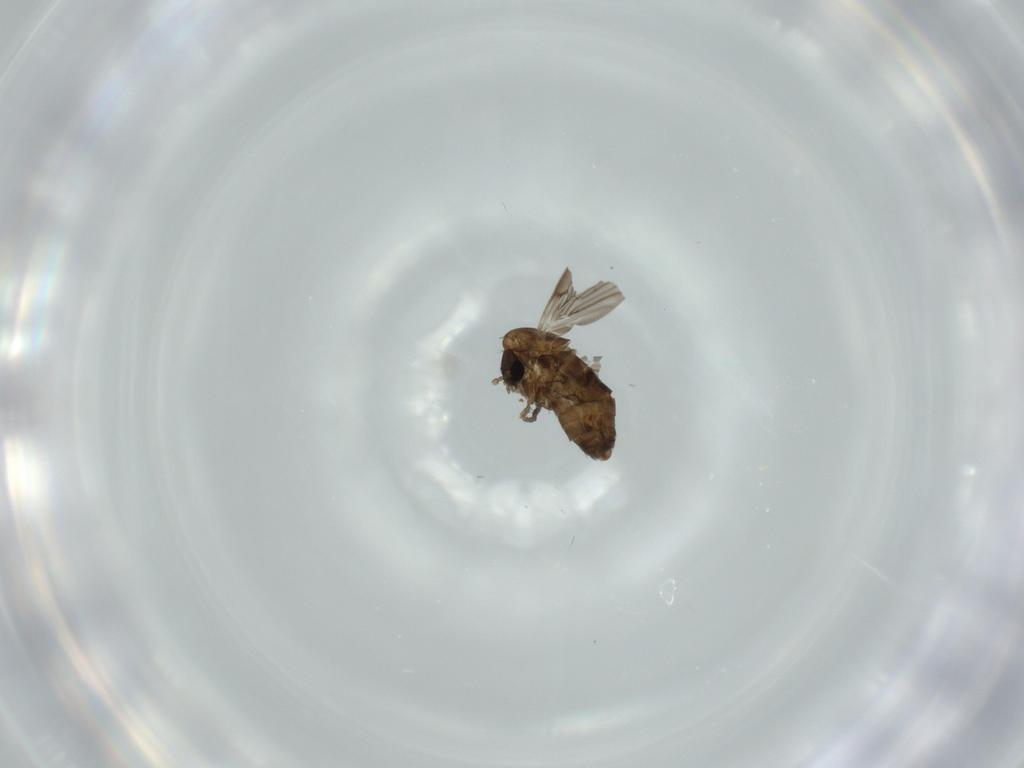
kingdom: Animalia
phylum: Arthropoda
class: Insecta
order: Diptera
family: Psychodidae
